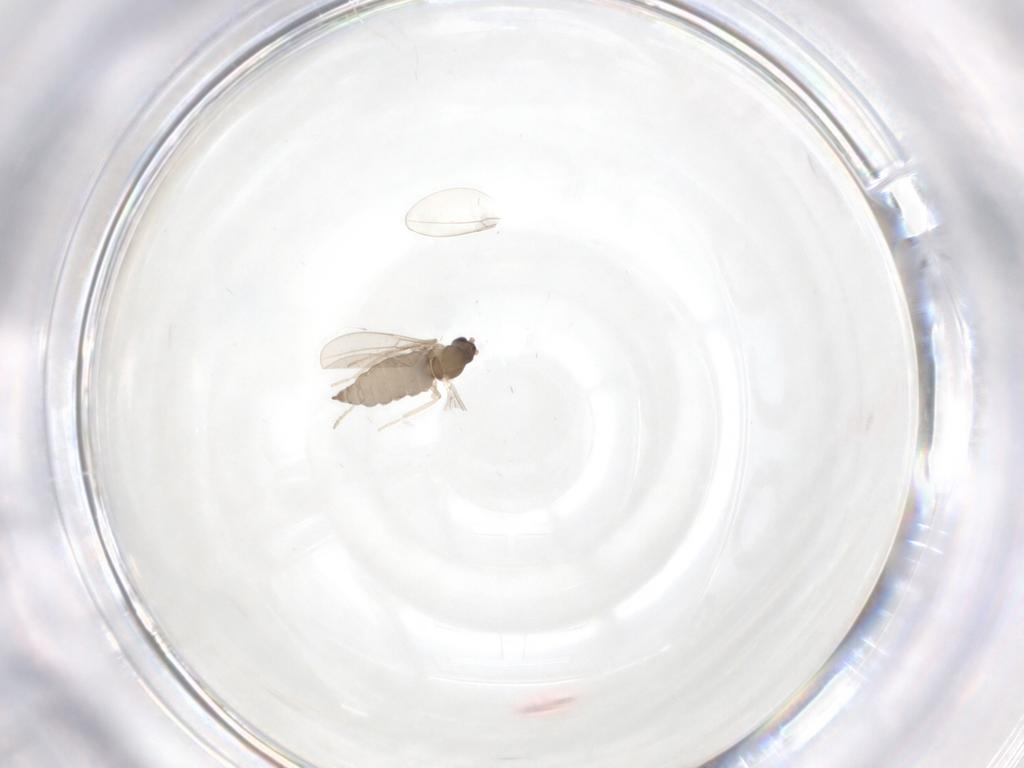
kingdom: Animalia
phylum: Arthropoda
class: Insecta
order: Diptera
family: Cecidomyiidae
